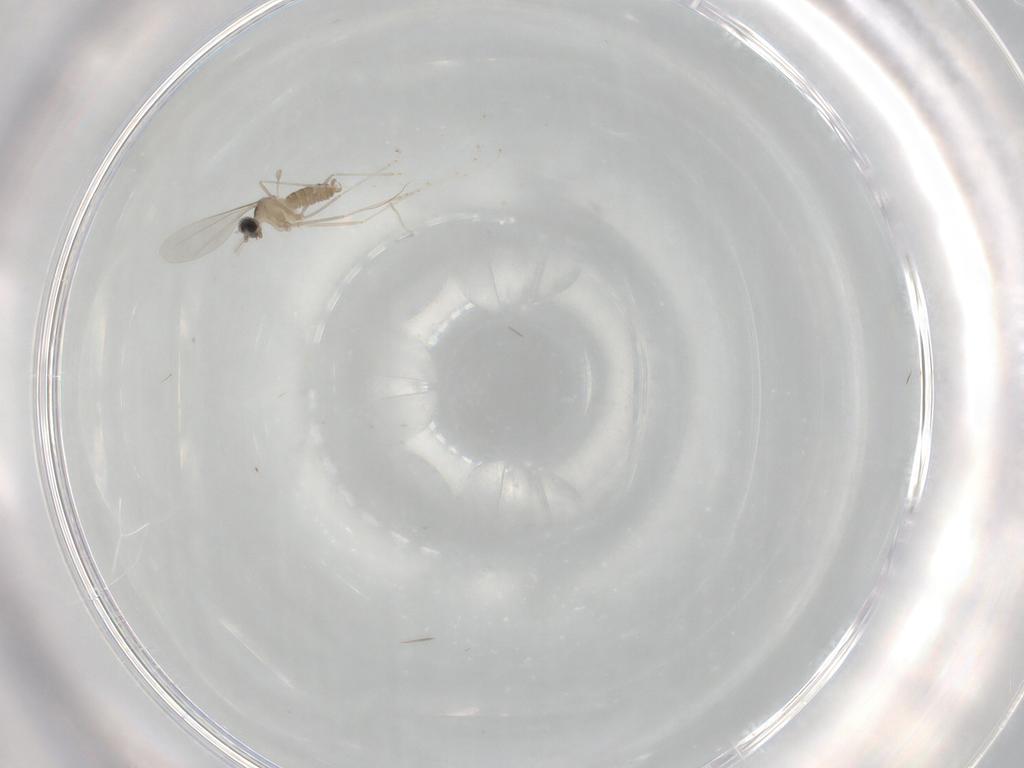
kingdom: Animalia
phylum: Arthropoda
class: Insecta
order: Diptera
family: Cecidomyiidae
